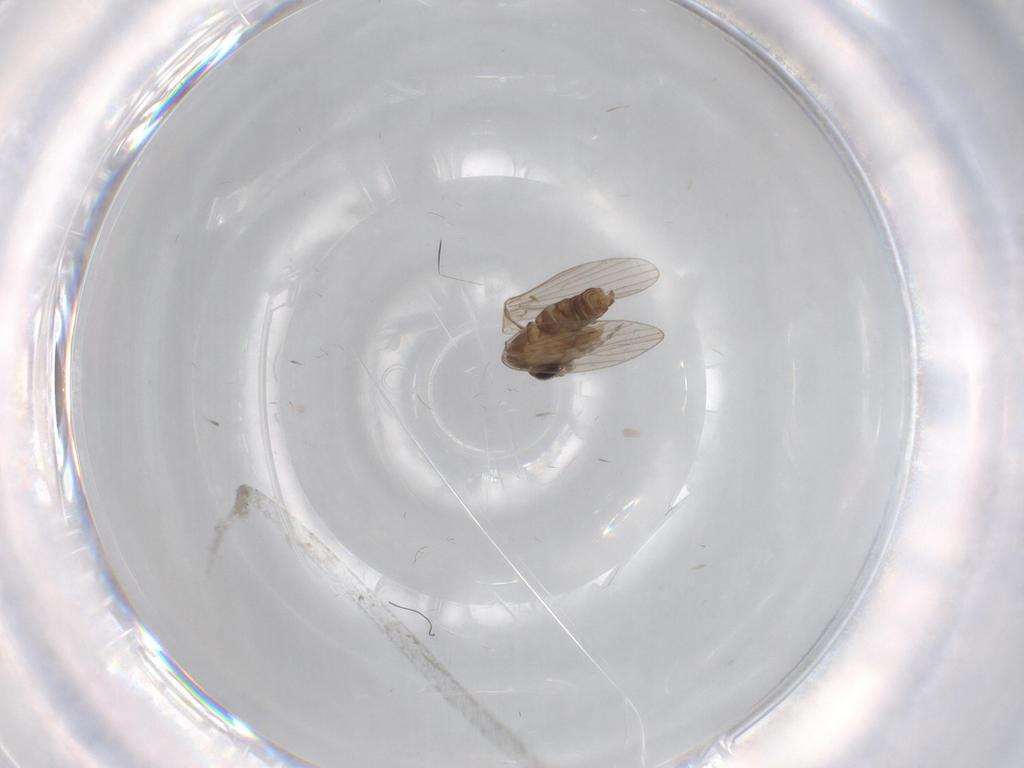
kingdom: Animalia
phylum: Arthropoda
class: Insecta
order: Diptera
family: Cecidomyiidae
